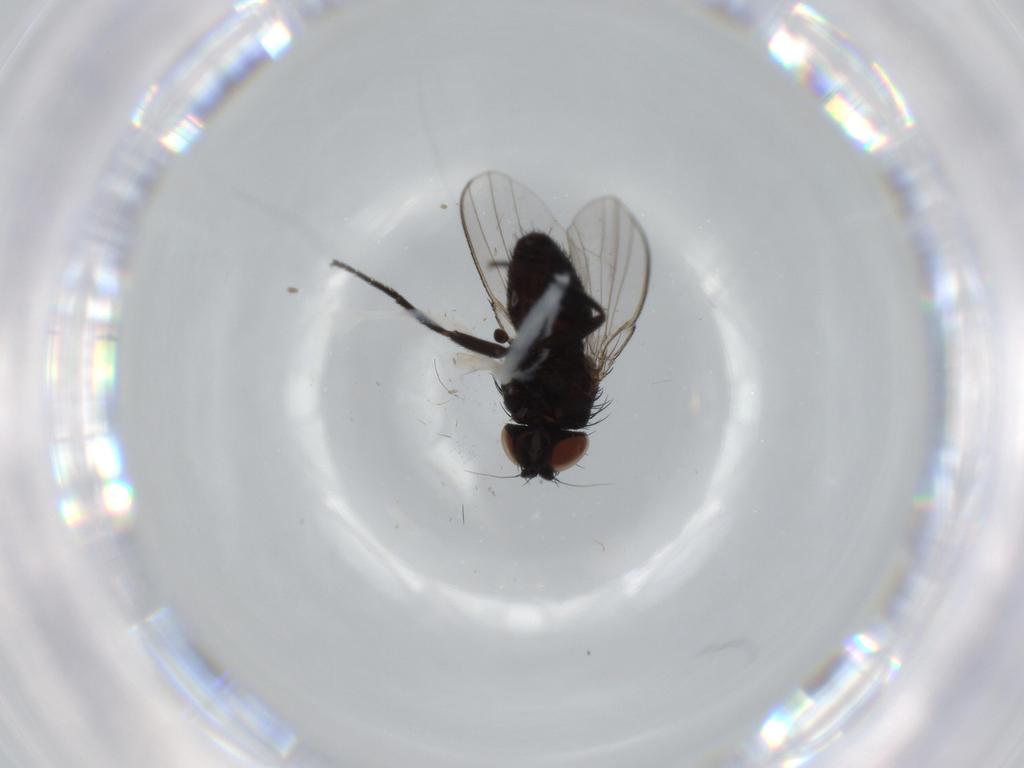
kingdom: Animalia
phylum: Arthropoda
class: Insecta
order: Diptera
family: Milichiidae
